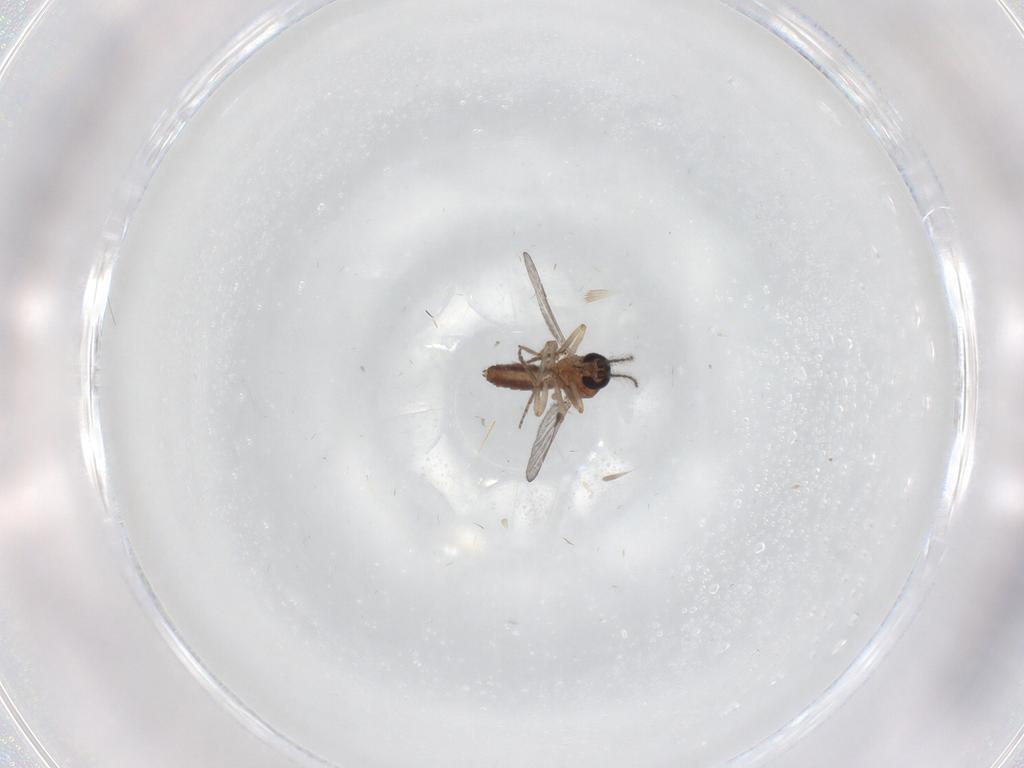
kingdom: Animalia
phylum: Arthropoda
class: Insecta
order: Diptera
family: Ceratopogonidae
